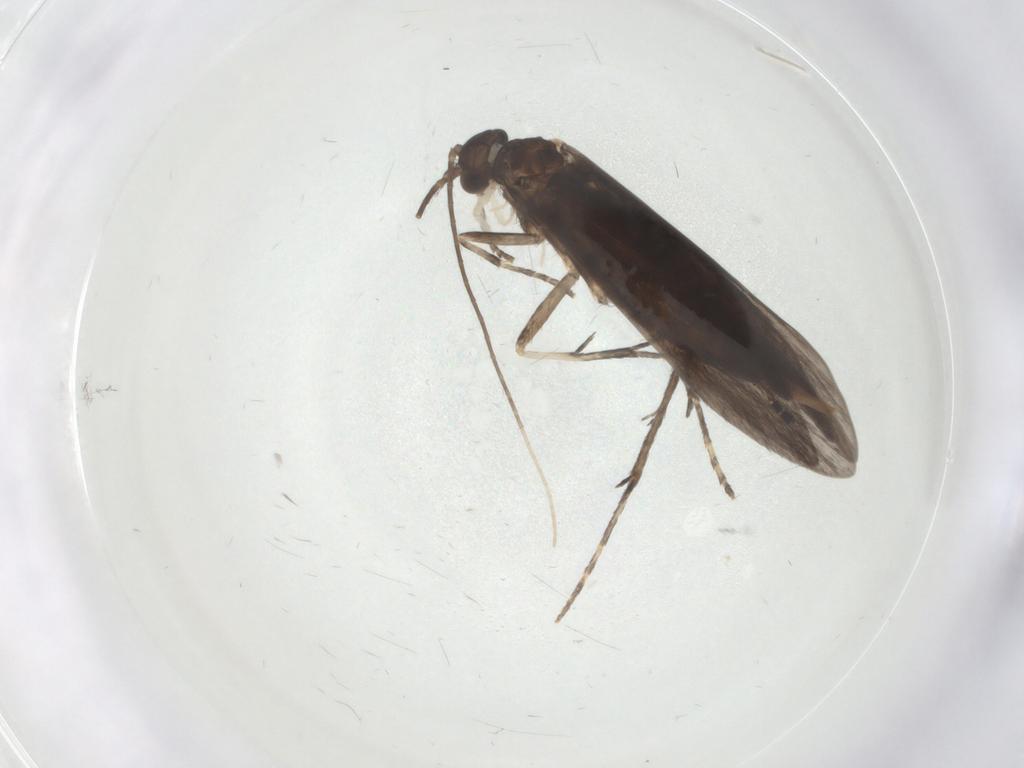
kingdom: Animalia
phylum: Arthropoda
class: Insecta
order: Trichoptera
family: Xiphocentronidae
